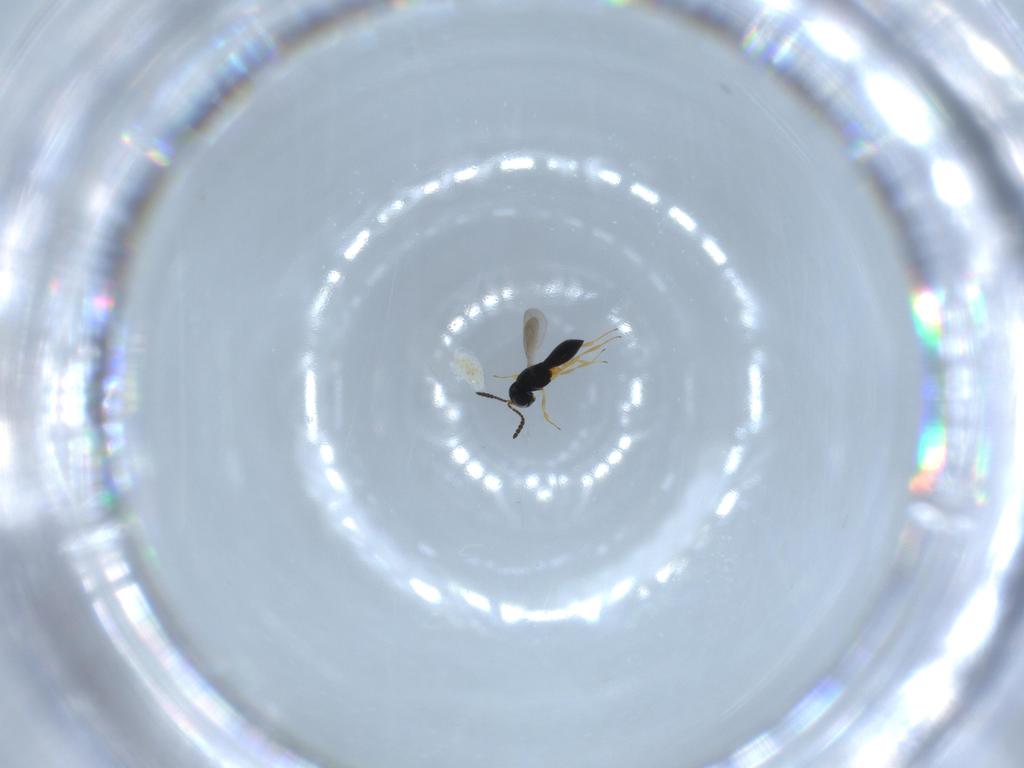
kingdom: Animalia
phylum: Arthropoda
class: Insecta
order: Hymenoptera
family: Scelionidae
